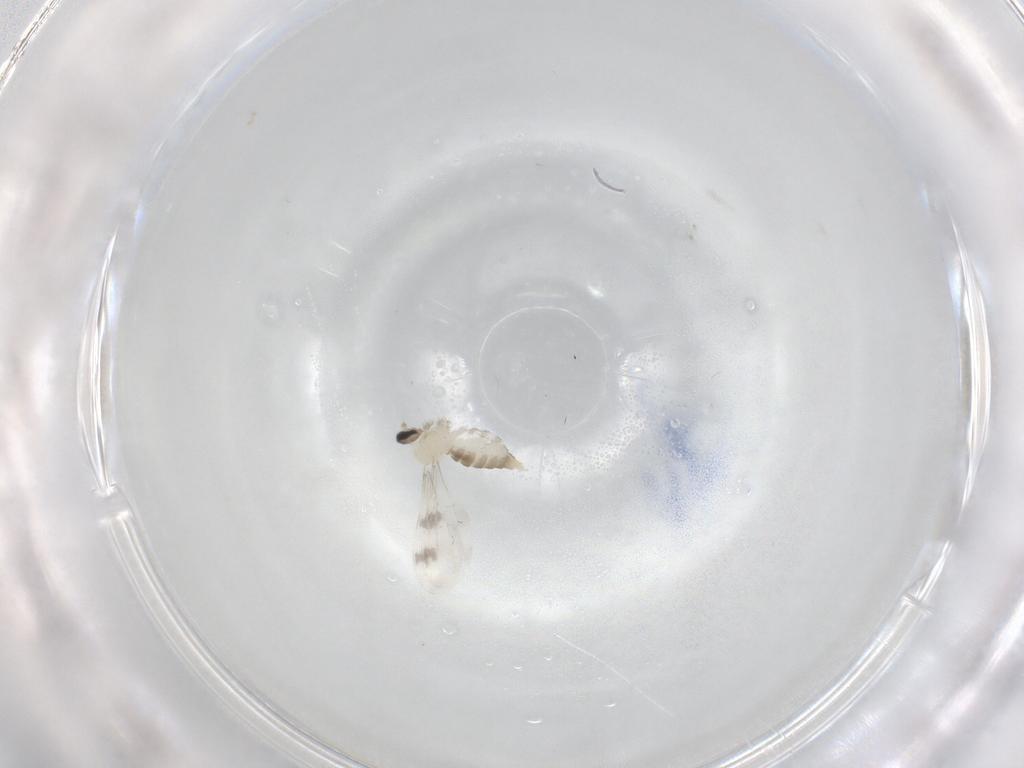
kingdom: Animalia
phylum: Arthropoda
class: Insecta
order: Diptera
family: Cecidomyiidae
